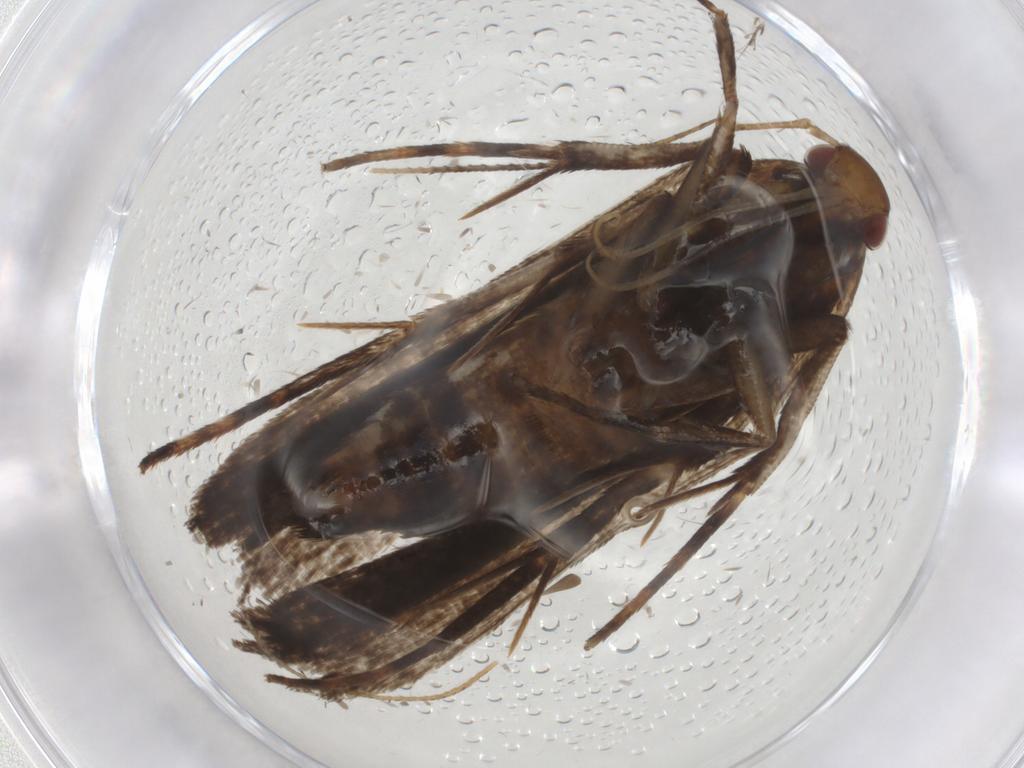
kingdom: Animalia
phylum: Arthropoda
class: Insecta
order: Lepidoptera
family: Gelechiidae
